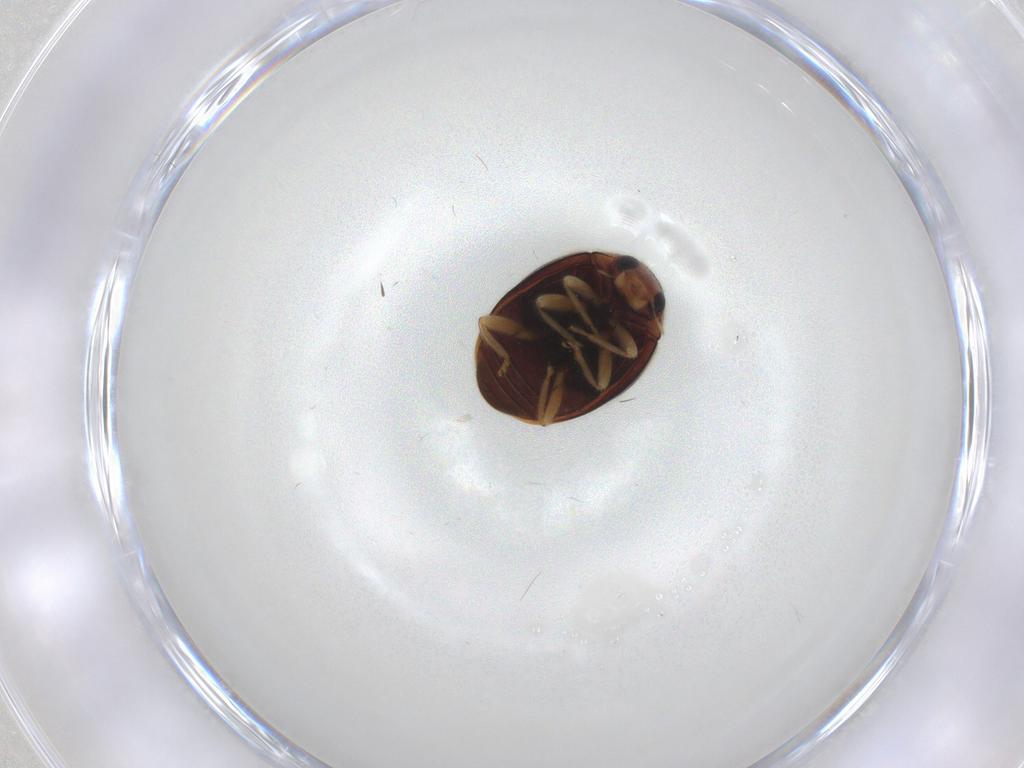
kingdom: Animalia
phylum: Arthropoda
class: Insecta
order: Coleoptera
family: Coccinellidae
